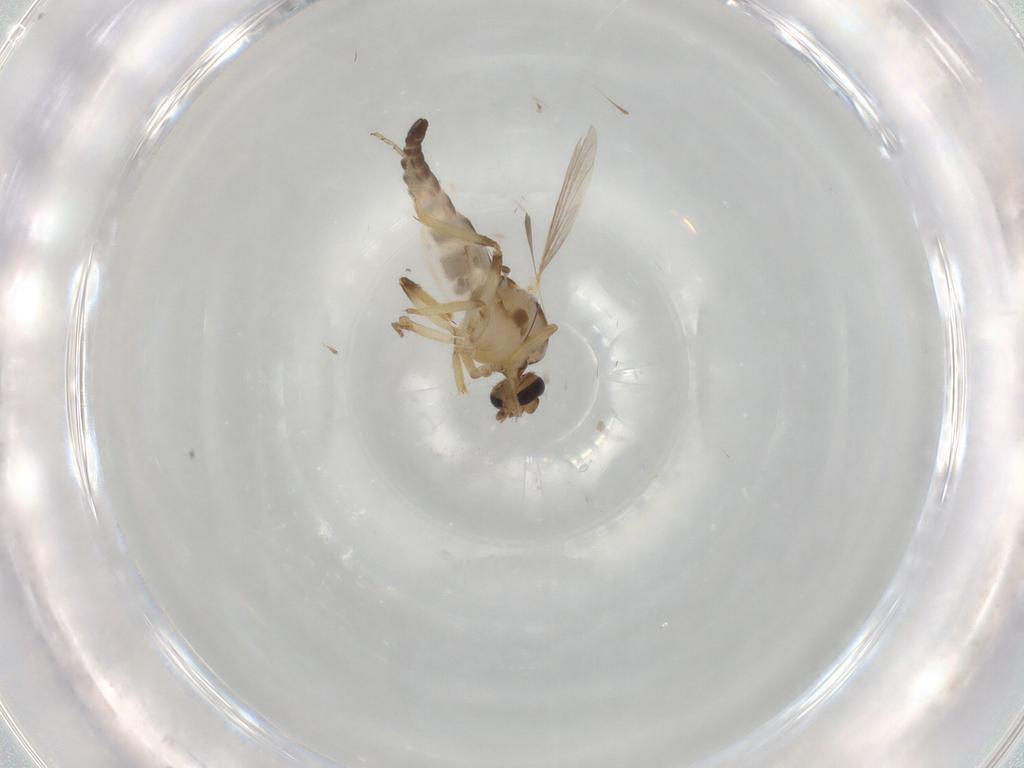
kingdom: Animalia
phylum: Arthropoda
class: Insecta
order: Diptera
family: Ceratopogonidae
